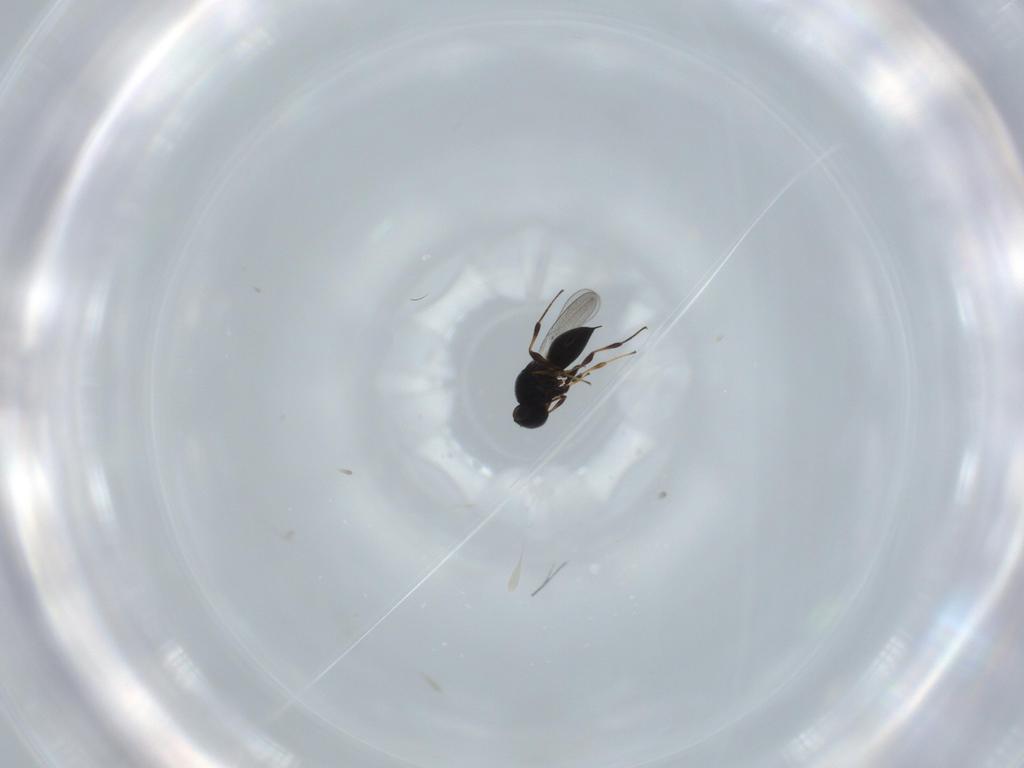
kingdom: Animalia
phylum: Arthropoda
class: Insecta
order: Hymenoptera
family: Platygastridae
